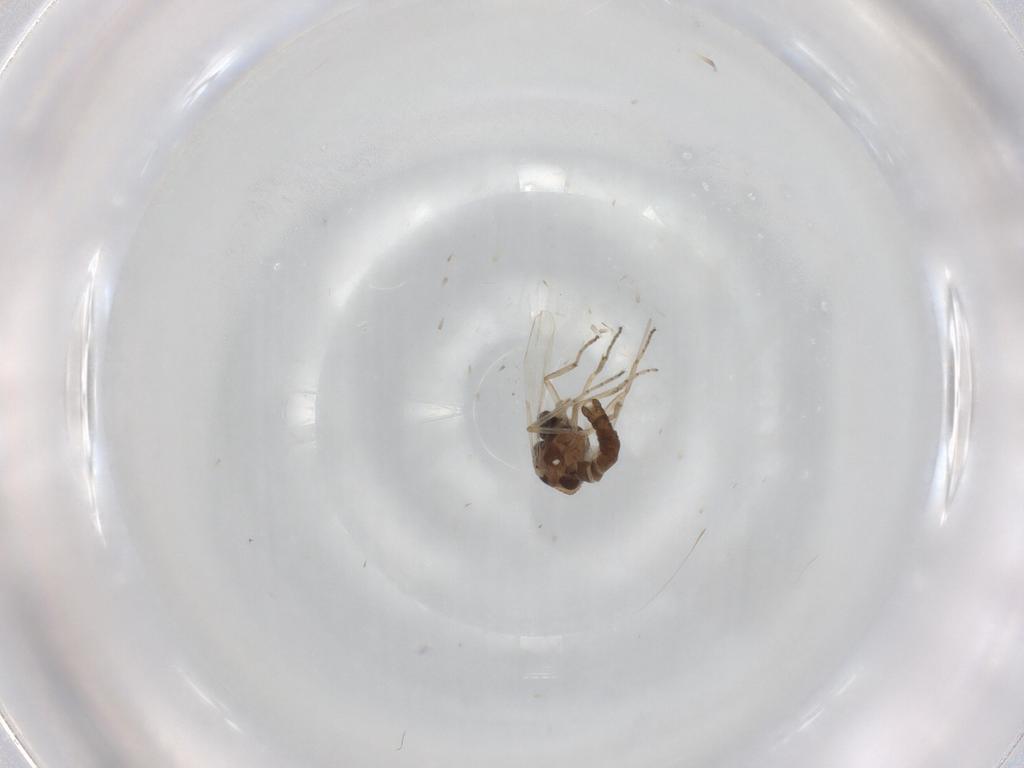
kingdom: Animalia
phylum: Arthropoda
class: Insecta
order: Diptera
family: Ceratopogonidae
